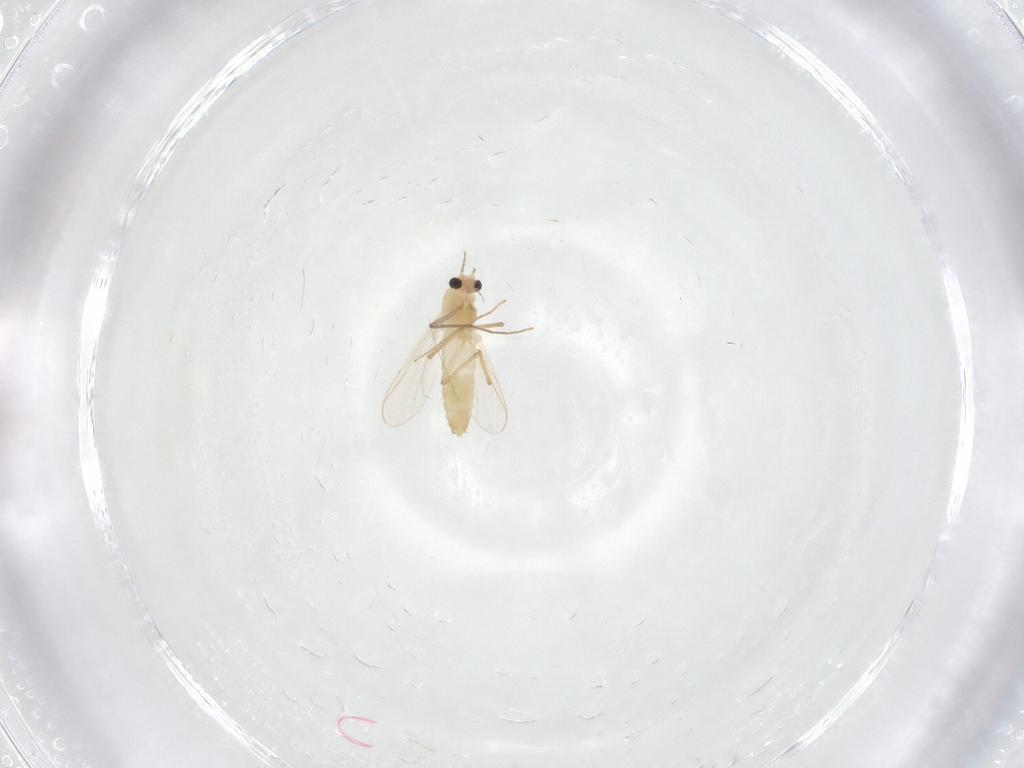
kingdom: Animalia
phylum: Arthropoda
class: Insecta
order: Diptera
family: Chironomidae
